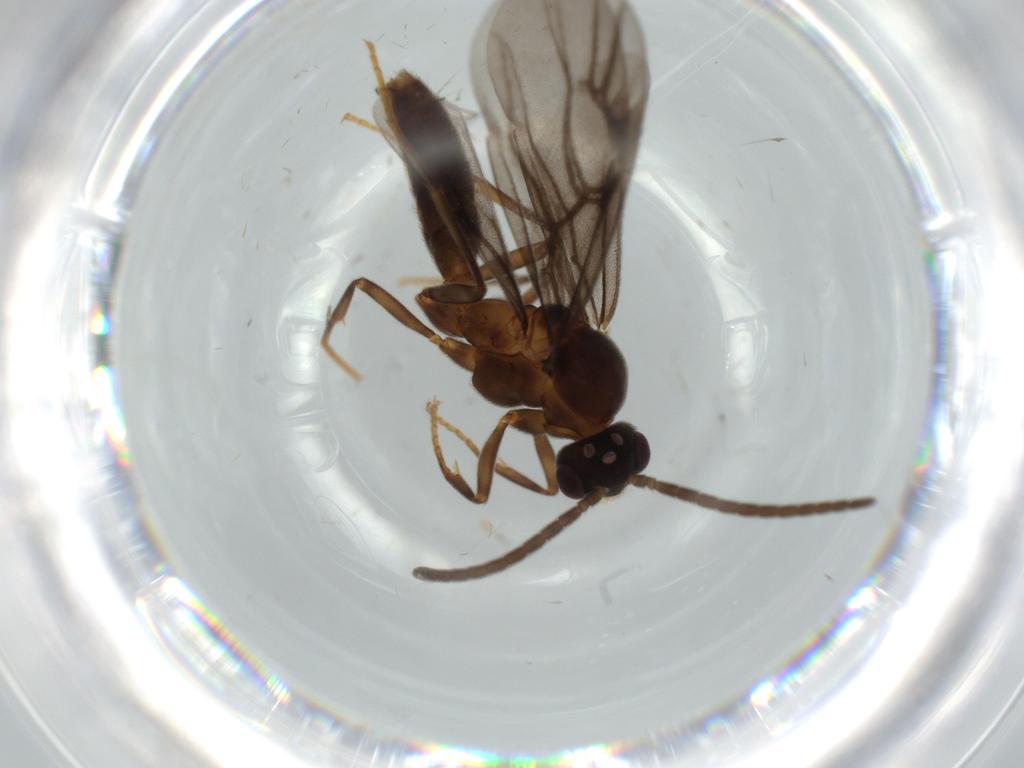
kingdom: Animalia
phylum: Arthropoda
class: Insecta
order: Hymenoptera
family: Formicidae
